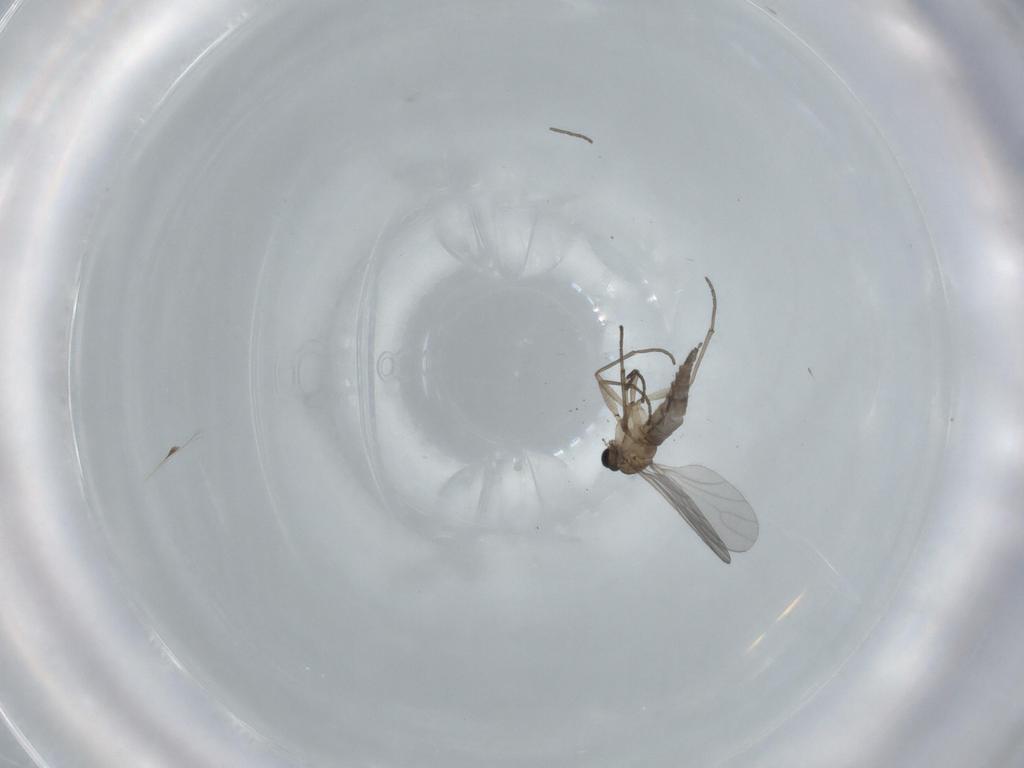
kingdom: Animalia
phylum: Arthropoda
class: Insecta
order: Diptera
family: Sciaridae
